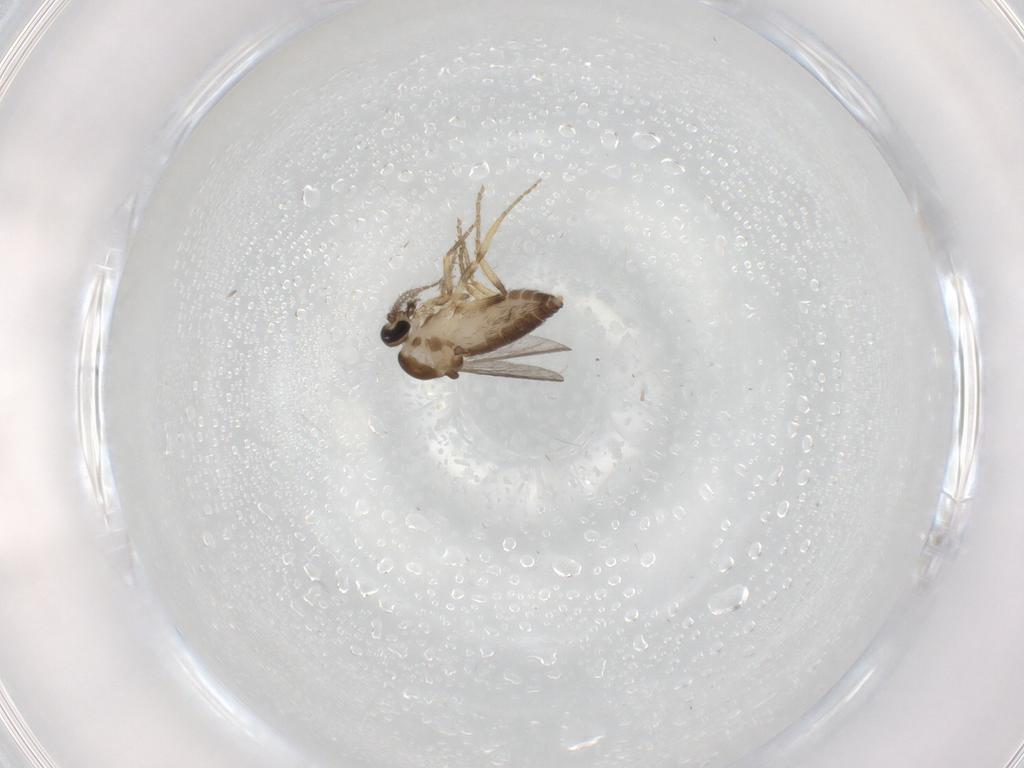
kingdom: Animalia
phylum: Arthropoda
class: Insecta
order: Diptera
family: Ceratopogonidae
